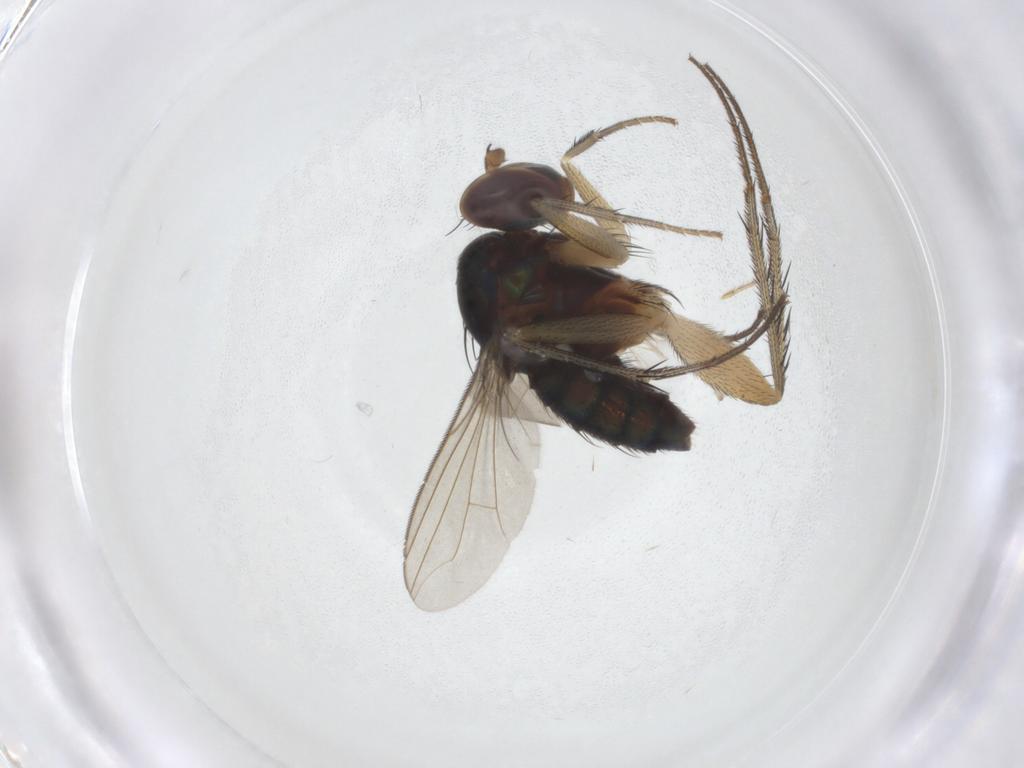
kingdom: Animalia
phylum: Arthropoda
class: Insecta
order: Diptera
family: Dolichopodidae
